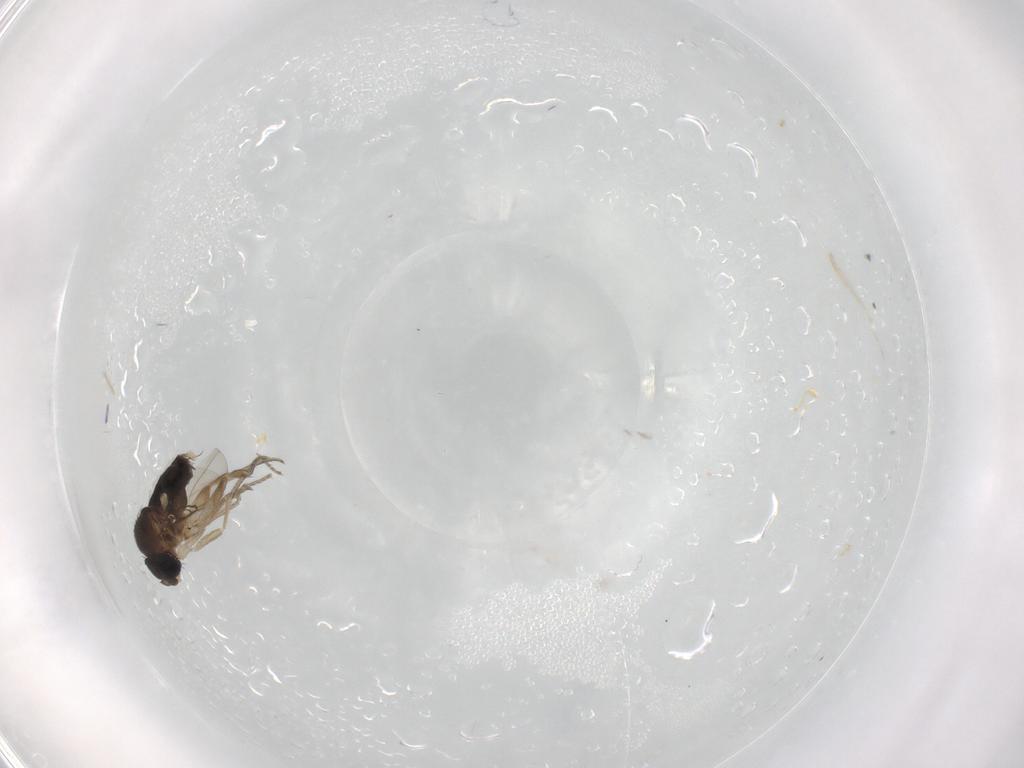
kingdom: Animalia
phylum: Arthropoda
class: Insecta
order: Diptera
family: Phoridae
